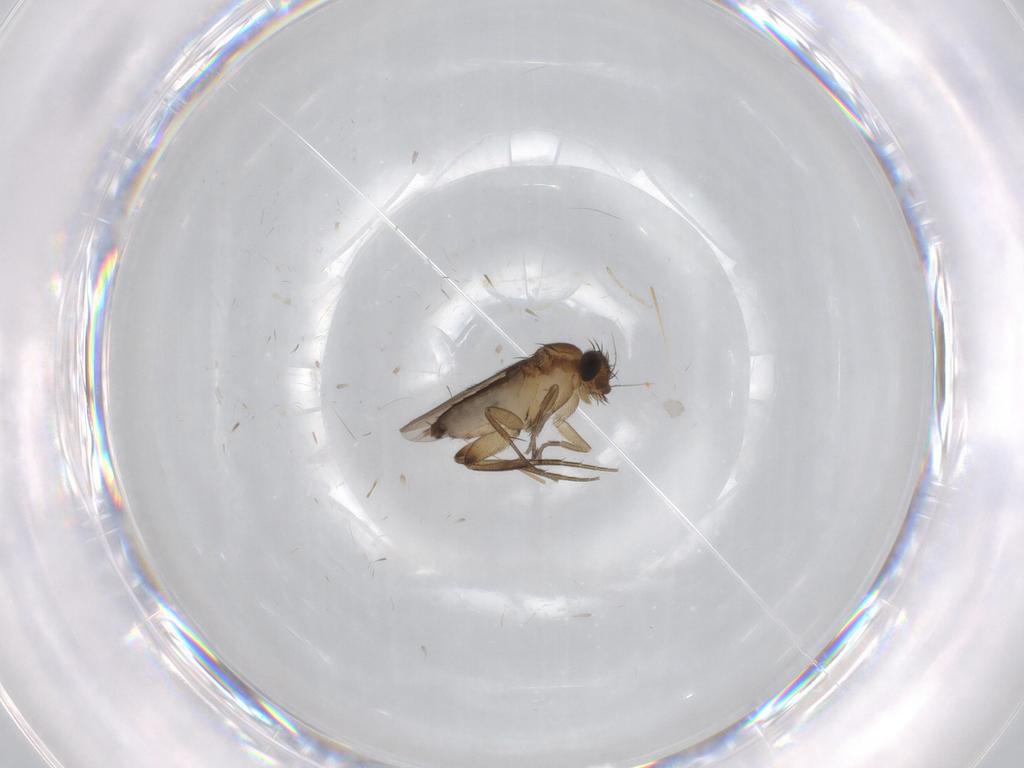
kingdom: Animalia
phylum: Arthropoda
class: Insecta
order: Diptera
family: Phoridae
